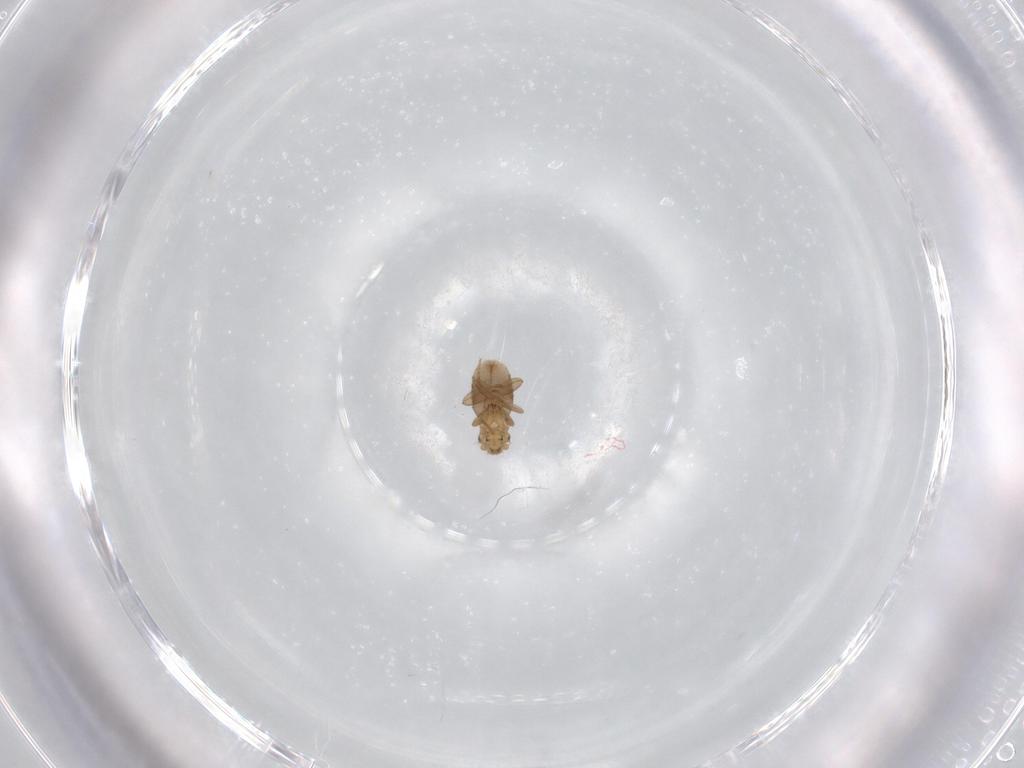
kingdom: Animalia
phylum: Arthropoda
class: Insecta
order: Diptera
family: Phoridae
